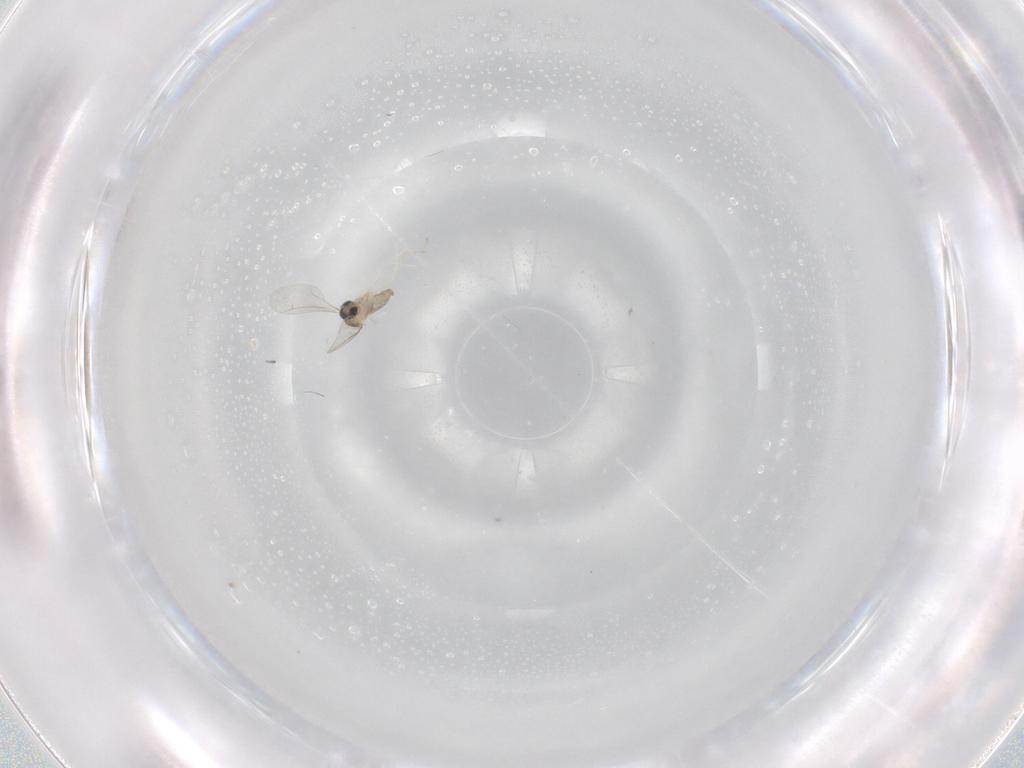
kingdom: Animalia
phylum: Arthropoda
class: Insecta
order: Diptera
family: Cecidomyiidae
